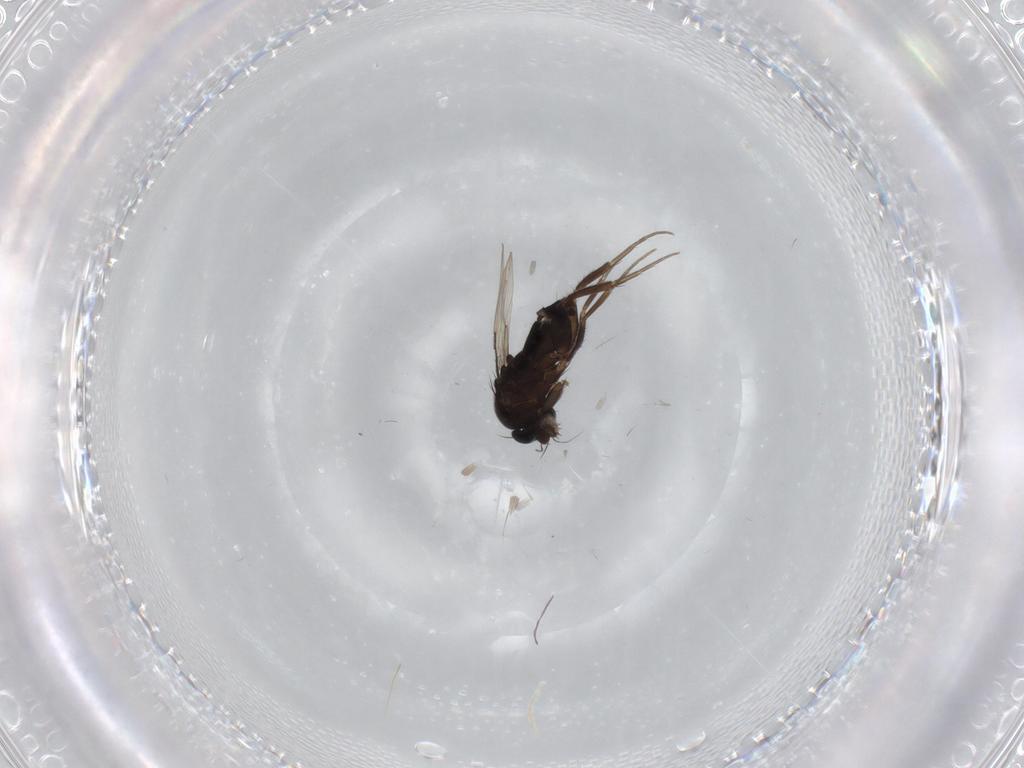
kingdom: Animalia
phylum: Arthropoda
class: Insecta
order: Diptera
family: Phoridae
